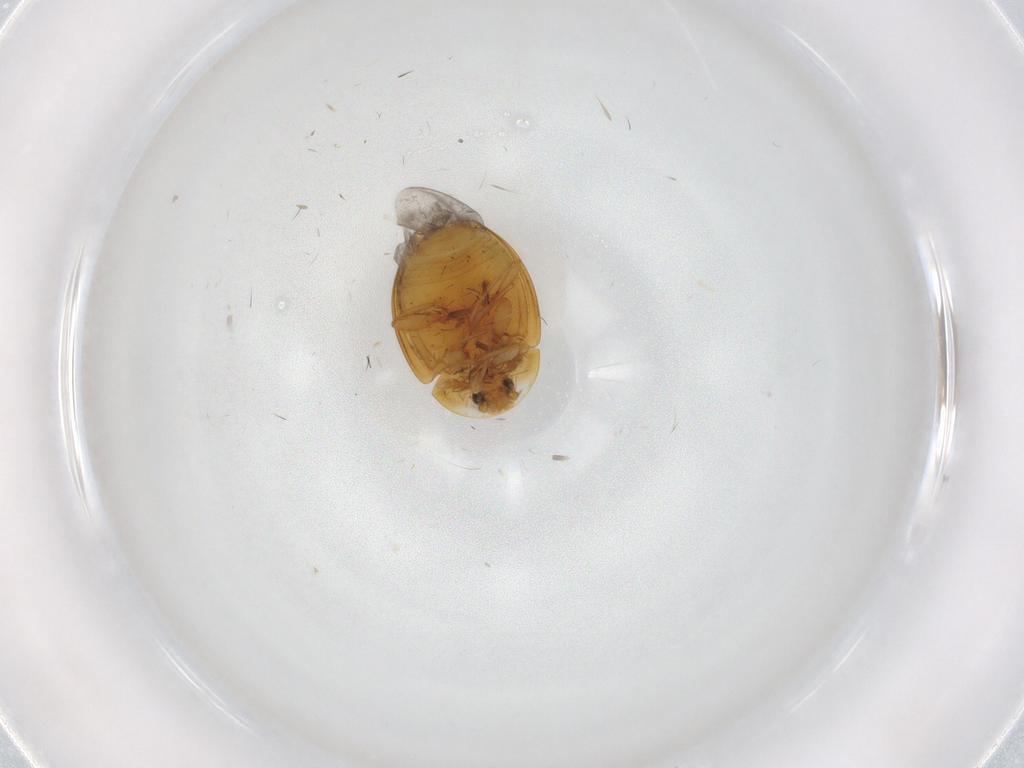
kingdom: Animalia
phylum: Arthropoda
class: Insecta
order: Coleoptera
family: Corylophidae
